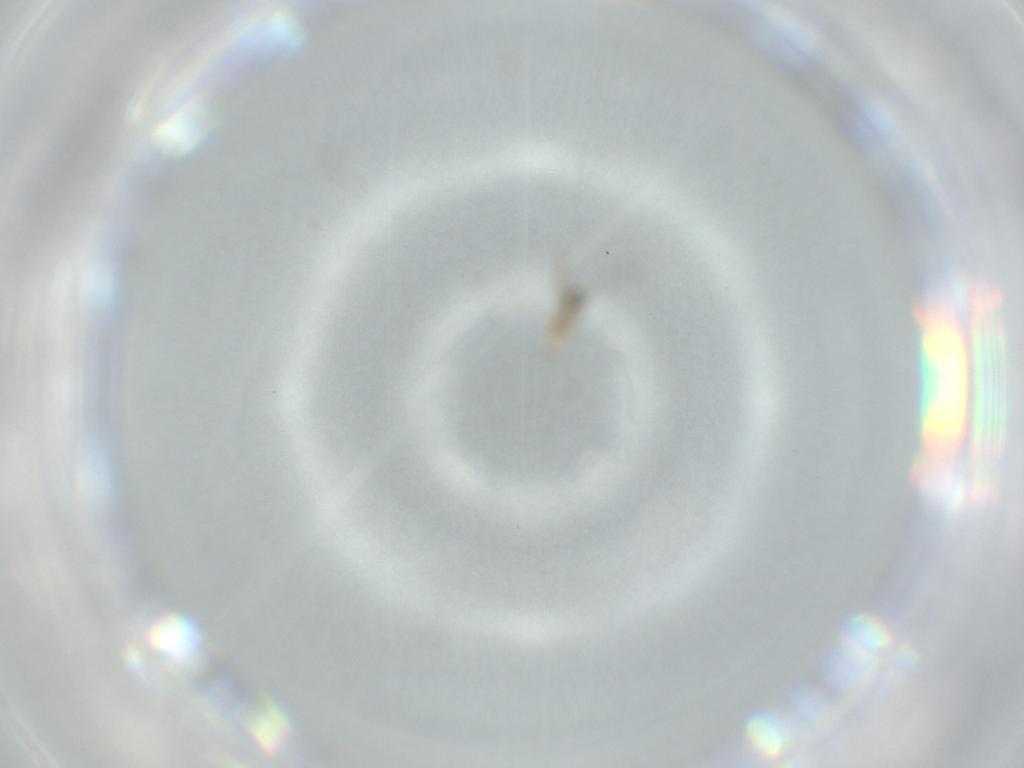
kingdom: Animalia
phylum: Arthropoda
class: Insecta
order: Diptera
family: Cecidomyiidae
